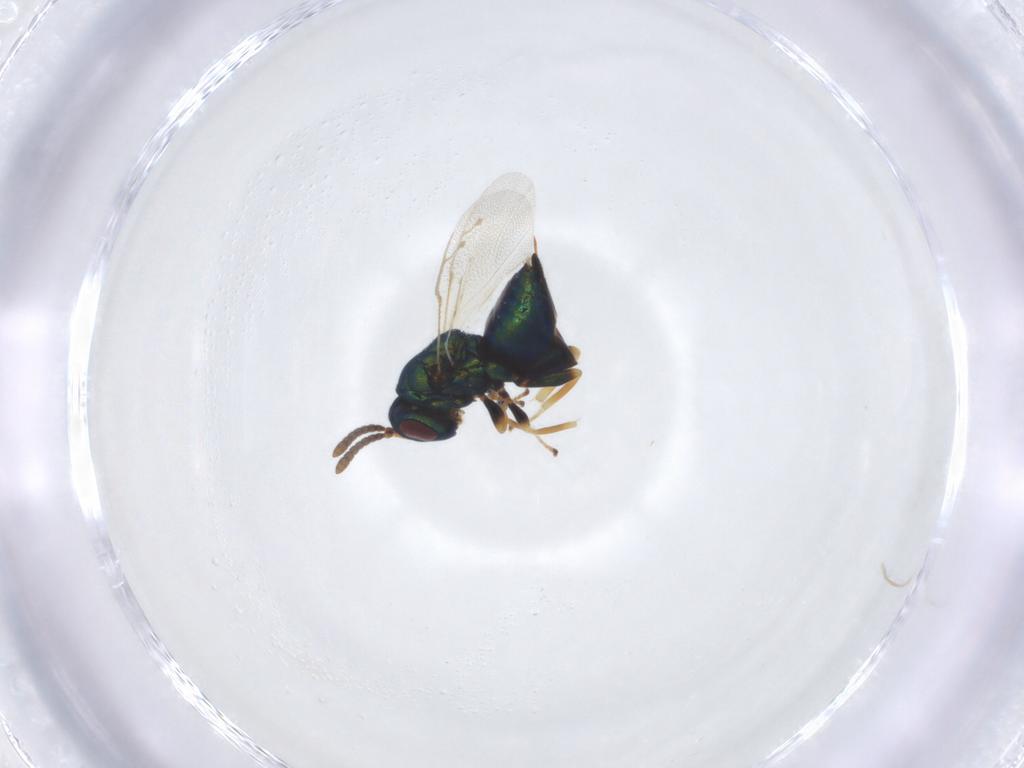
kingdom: Animalia
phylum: Arthropoda
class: Insecta
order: Hymenoptera
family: Pteromalidae
